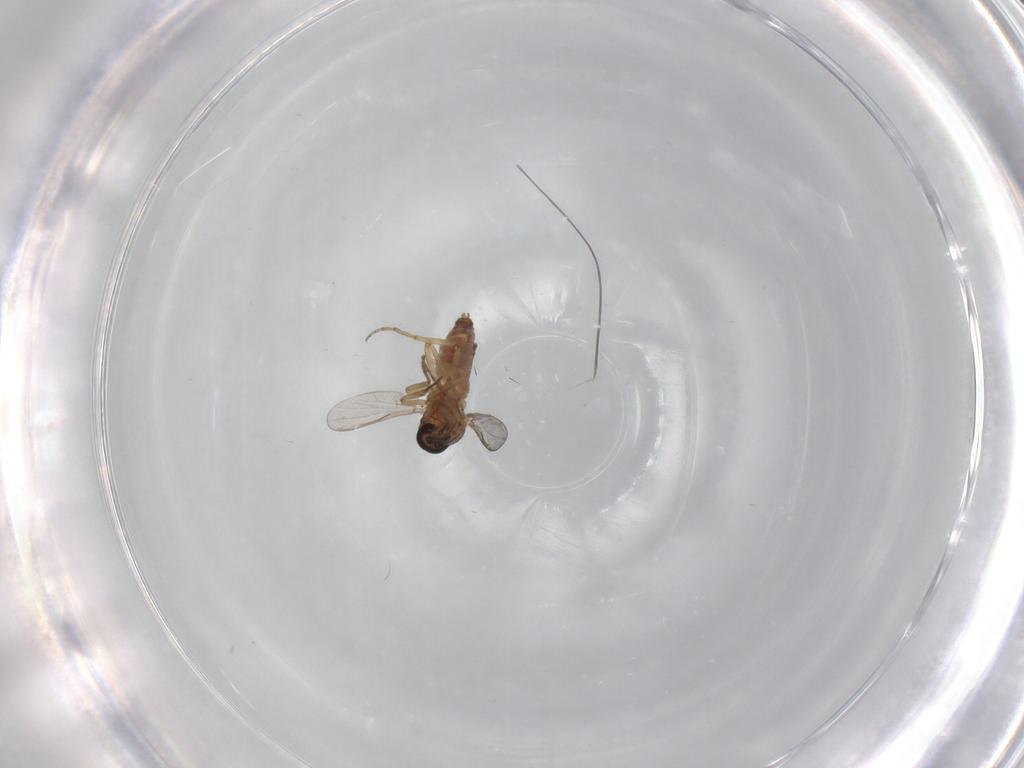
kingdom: Animalia
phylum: Arthropoda
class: Insecta
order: Diptera
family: Ceratopogonidae
